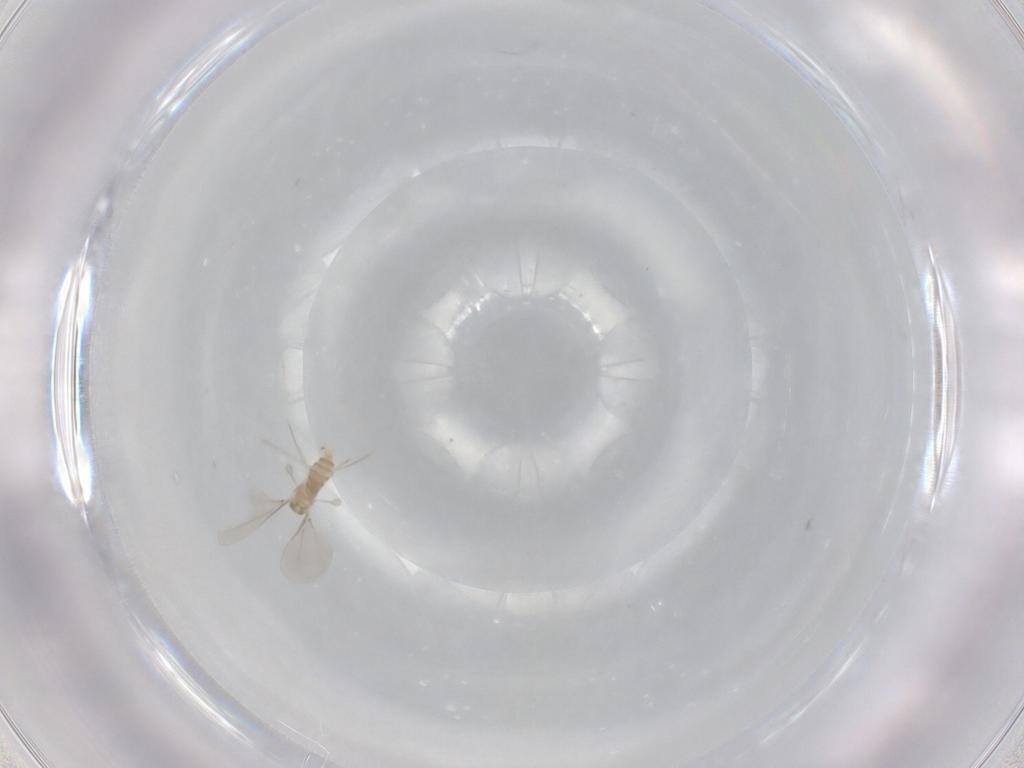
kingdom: Animalia
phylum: Arthropoda
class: Insecta
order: Diptera
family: Cecidomyiidae
